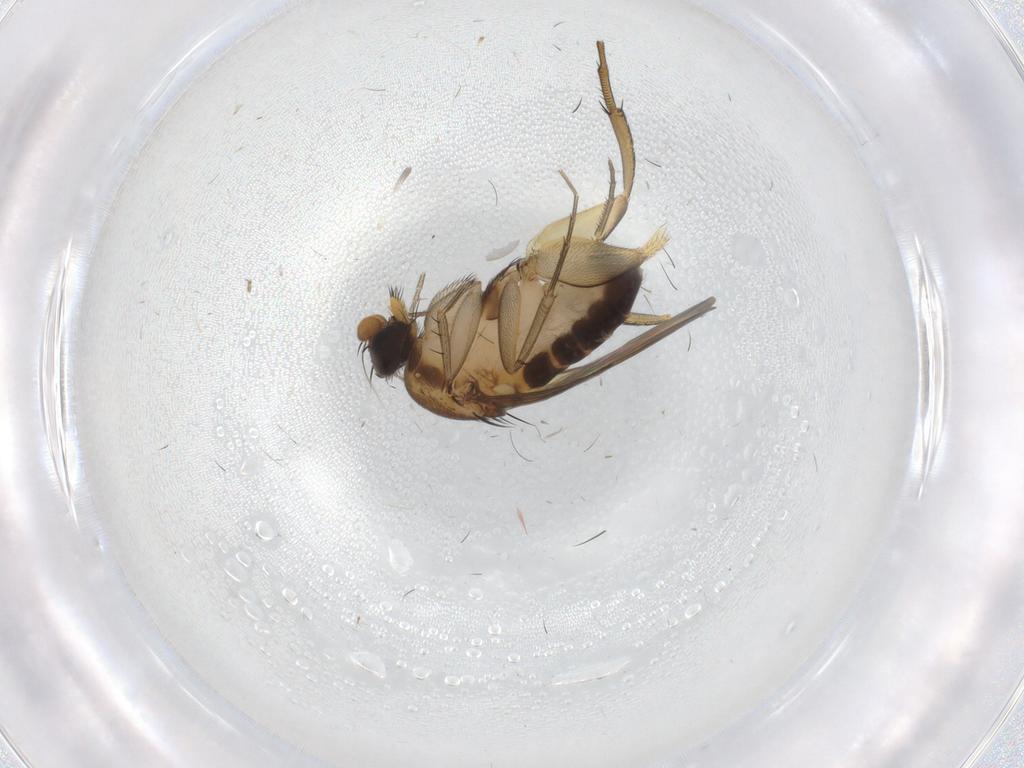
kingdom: Animalia
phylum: Arthropoda
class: Insecta
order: Diptera
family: Phoridae
